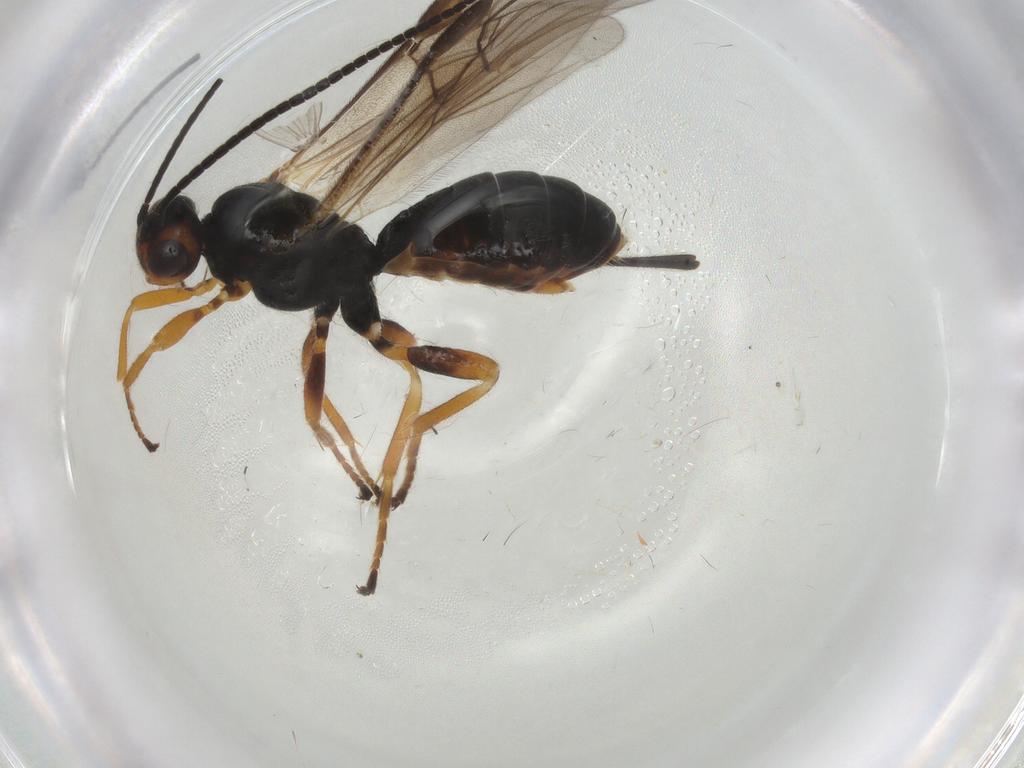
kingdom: Animalia
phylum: Arthropoda
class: Insecta
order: Hymenoptera
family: Braconidae
